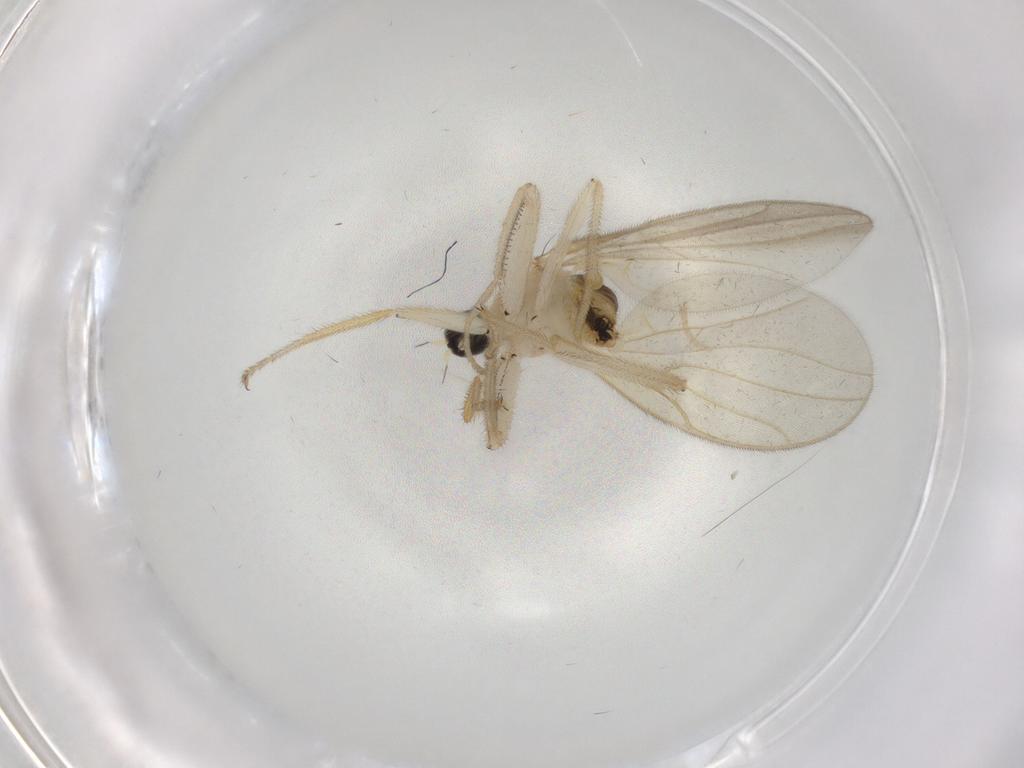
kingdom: Animalia
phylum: Arthropoda
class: Insecta
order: Diptera
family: Hybotidae
